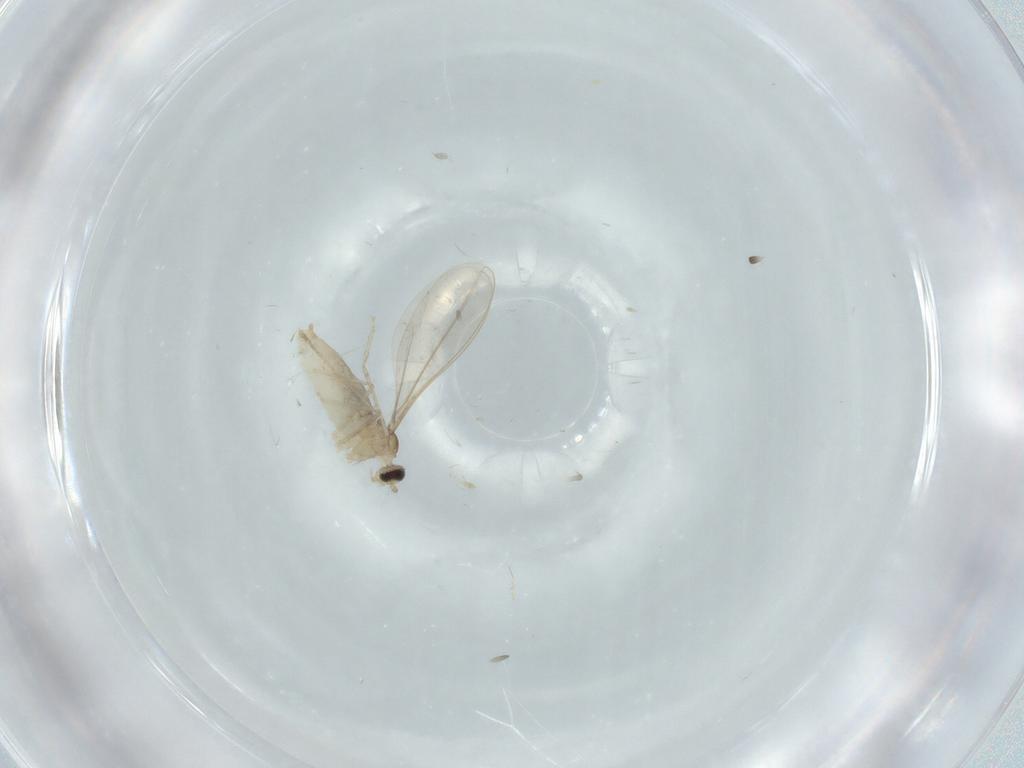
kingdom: Animalia
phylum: Arthropoda
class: Insecta
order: Diptera
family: Cecidomyiidae
